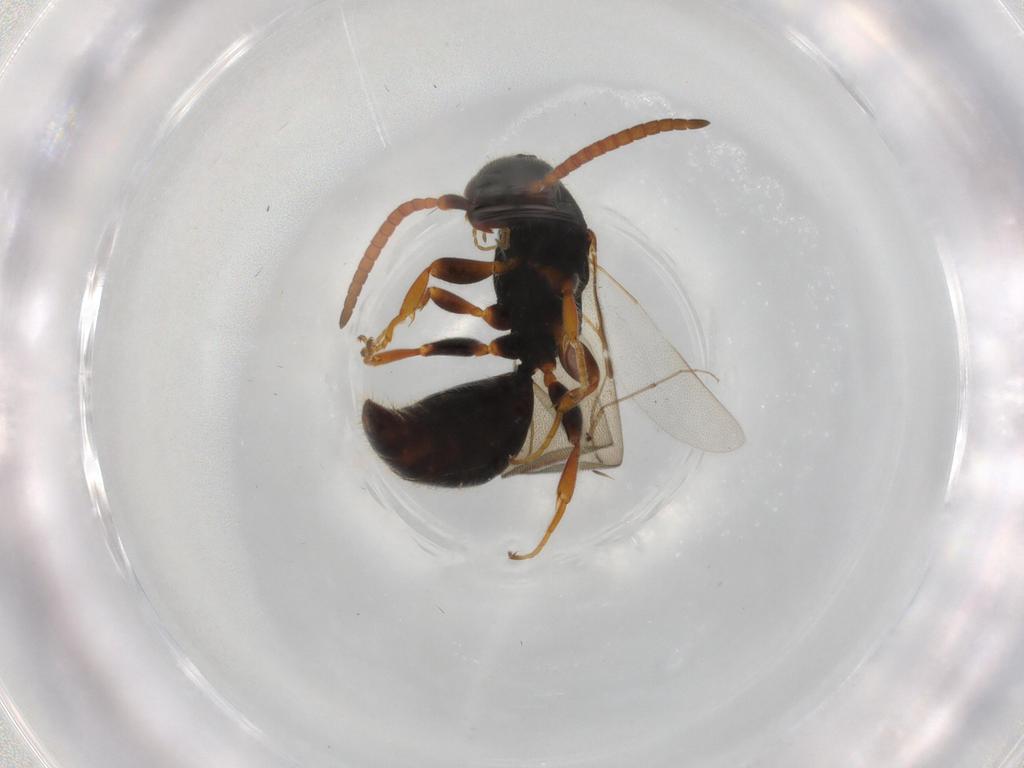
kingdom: Animalia
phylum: Arthropoda
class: Insecta
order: Hymenoptera
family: Bethylidae
